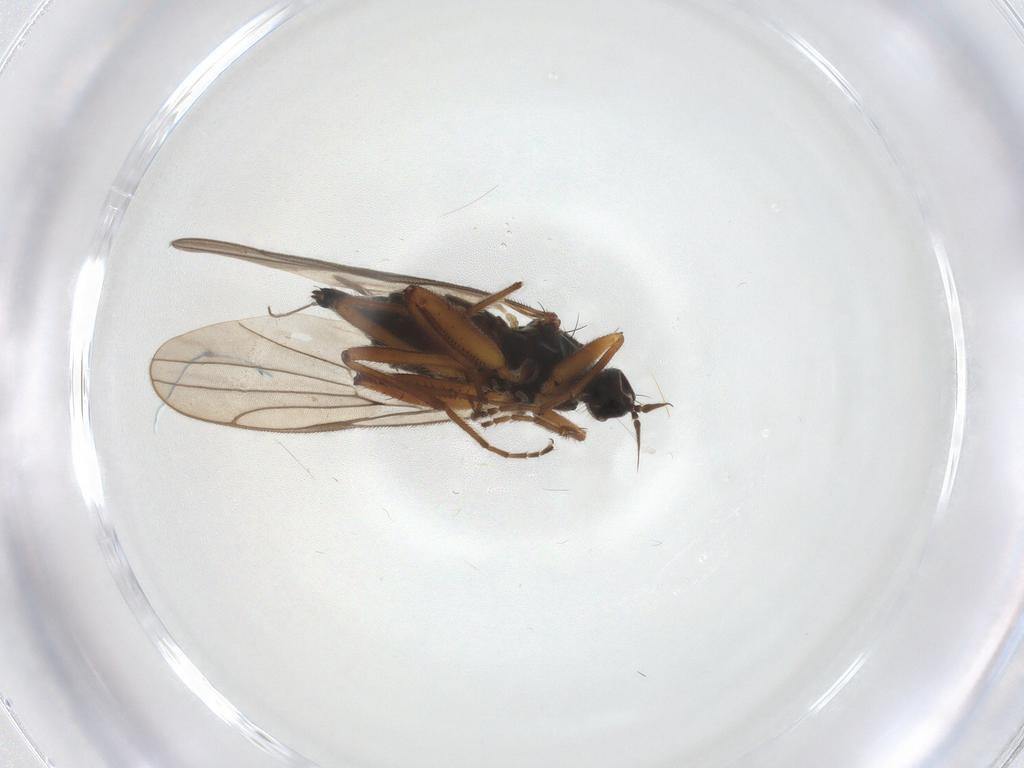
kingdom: Animalia
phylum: Arthropoda
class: Insecta
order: Diptera
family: Hybotidae
